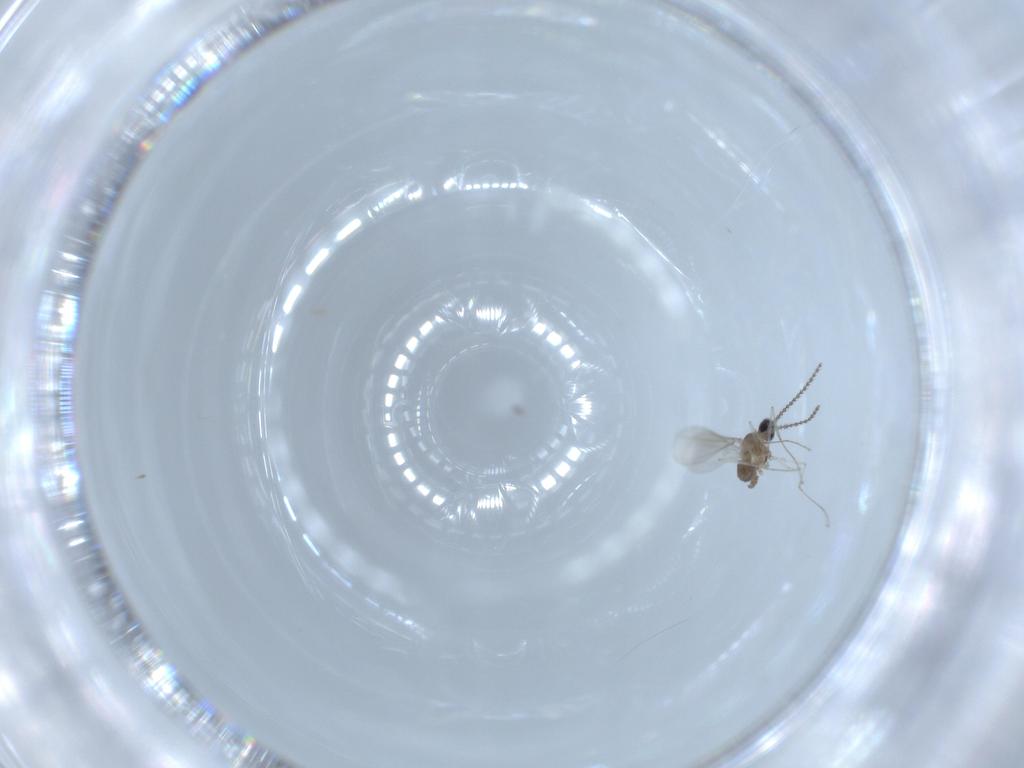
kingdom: Animalia
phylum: Arthropoda
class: Insecta
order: Diptera
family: Cecidomyiidae
